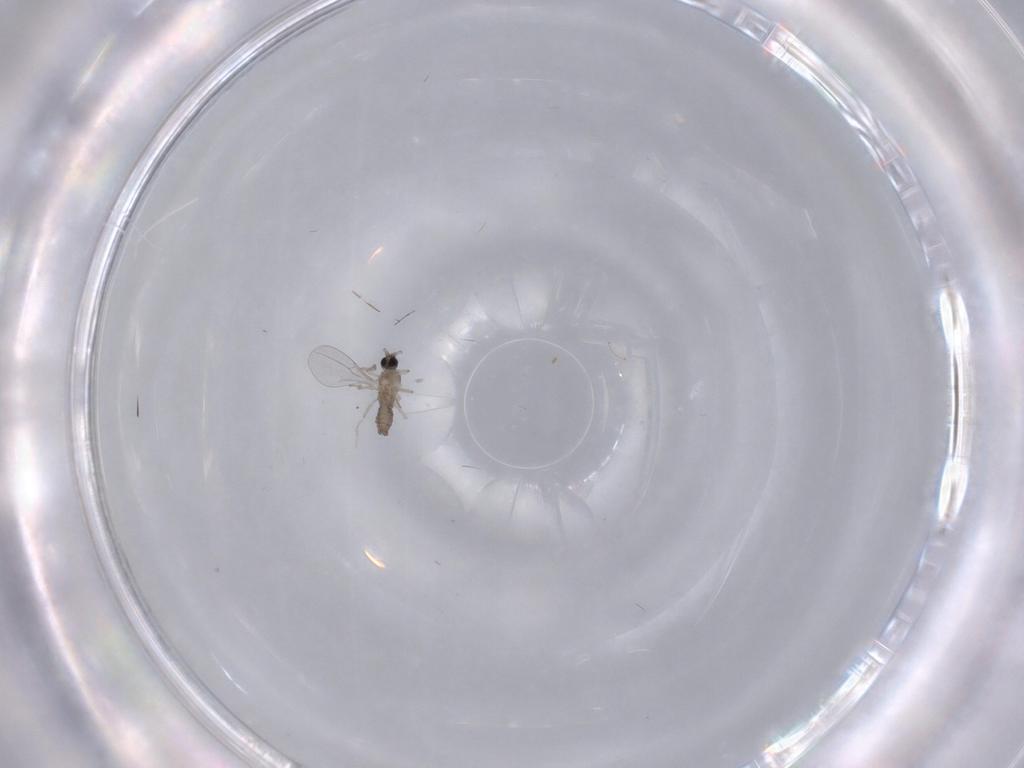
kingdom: Animalia
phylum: Arthropoda
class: Insecta
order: Diptera
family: Cecidomyiidae
